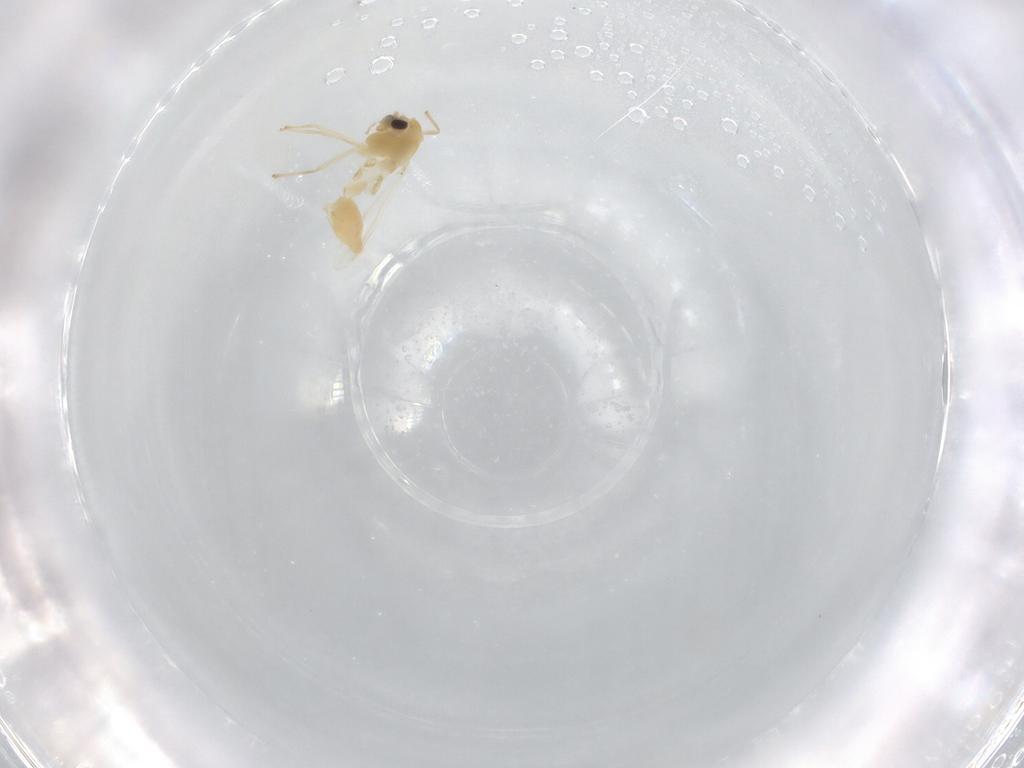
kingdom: Animalia
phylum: Arthropoda
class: Insecta
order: Diptera
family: Chironomidae
